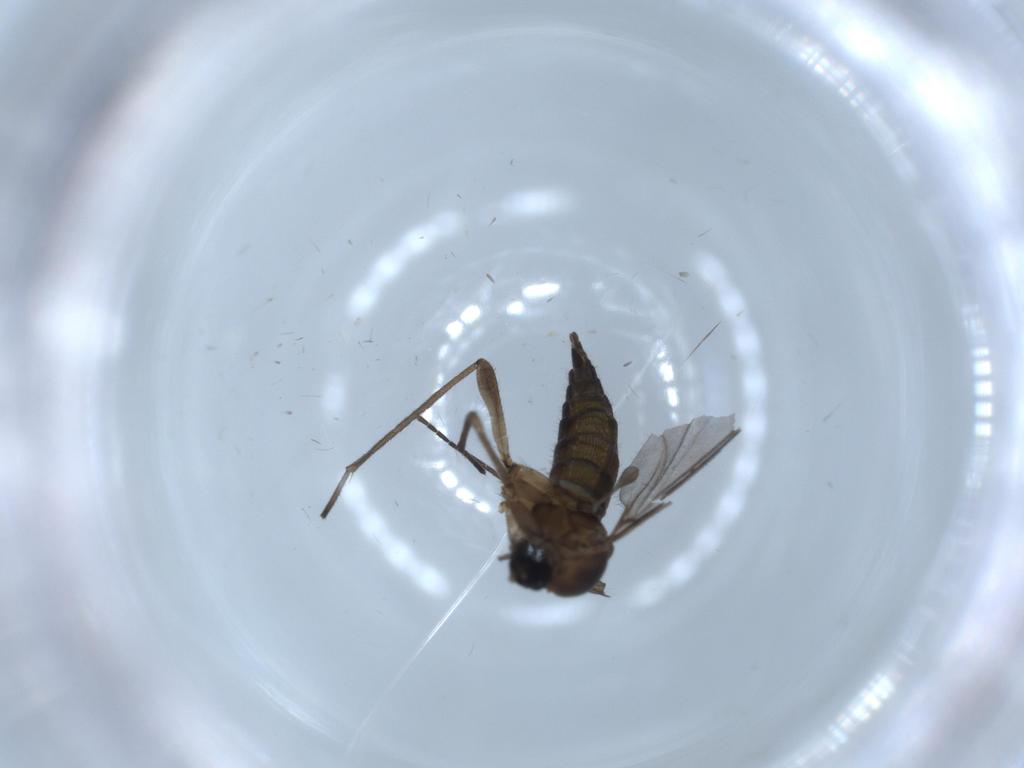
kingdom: Animalia
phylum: Arthropoda
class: Insecta
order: Diptera
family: Sciaridae
